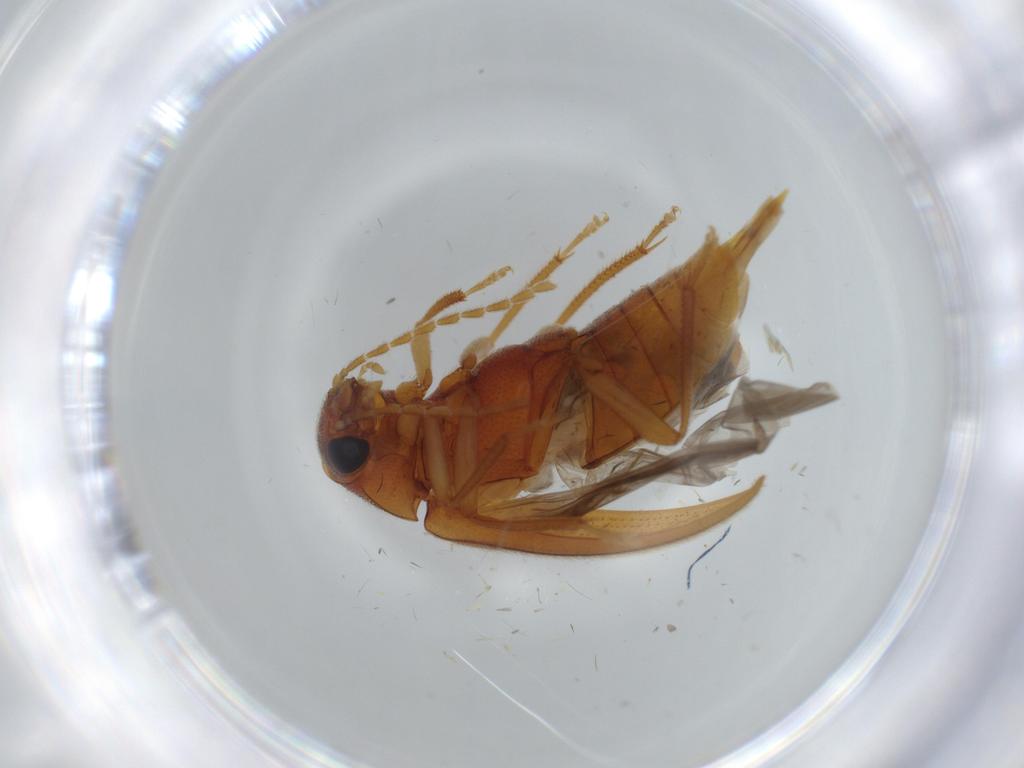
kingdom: Animalia
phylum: Arthropoda
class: Insecta
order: Coleoptera
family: Ptilodactylidae
